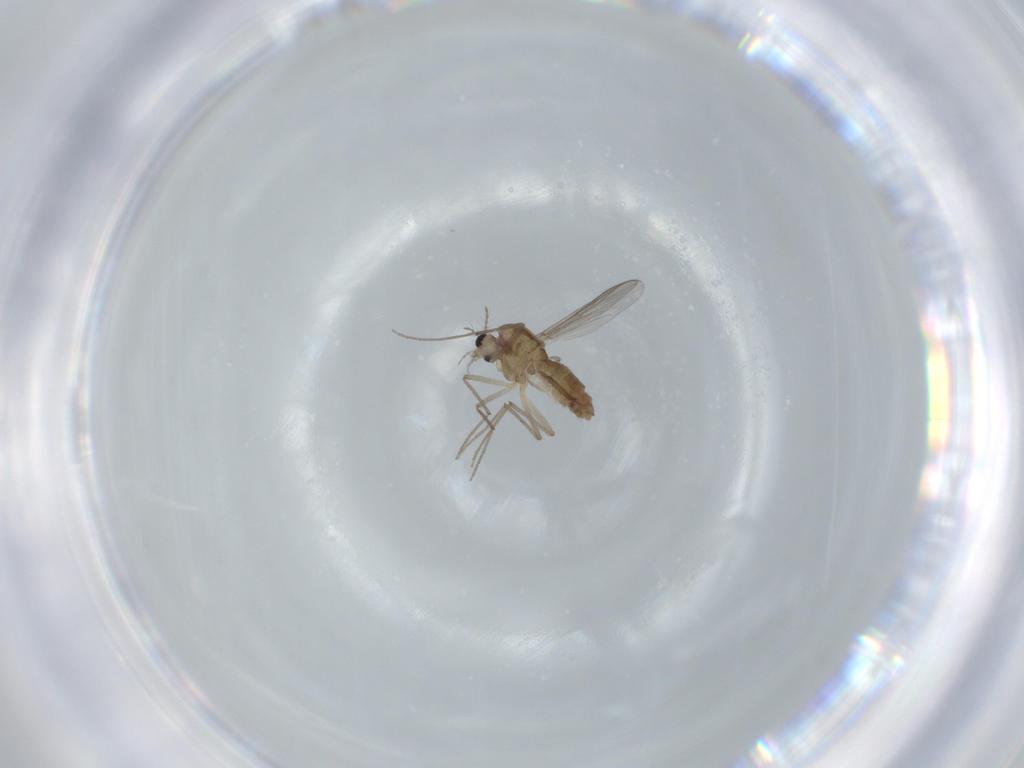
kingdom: Animalia
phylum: Arthropoda
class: Insecta
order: Diptera
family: Chironomidae
